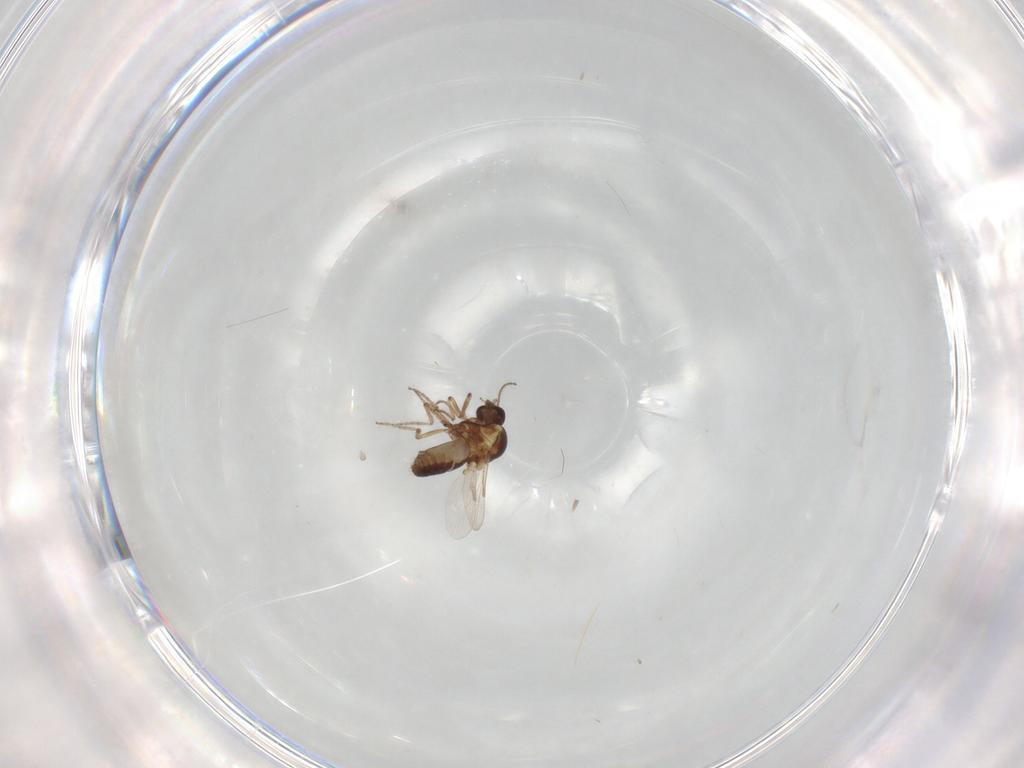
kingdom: Animalia
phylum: Arthropoda
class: Insecta
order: Diptera
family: Ceratopogonidae
